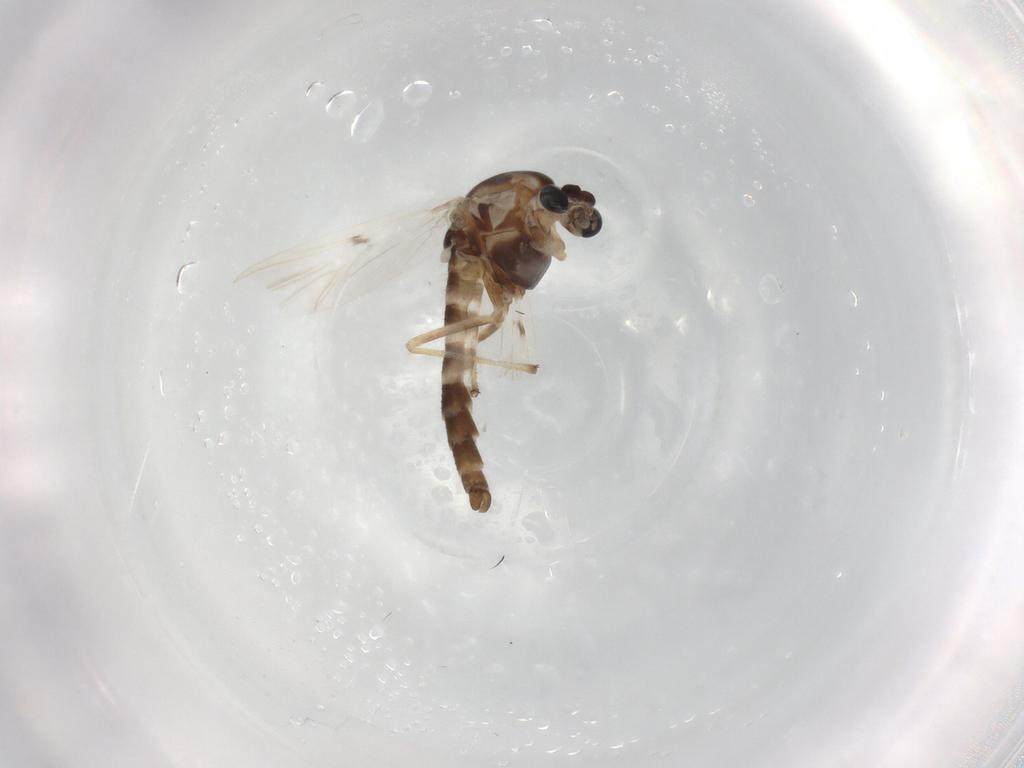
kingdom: Animalia
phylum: Arthropoda
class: Insecta
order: Diptera
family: Chironomidae
